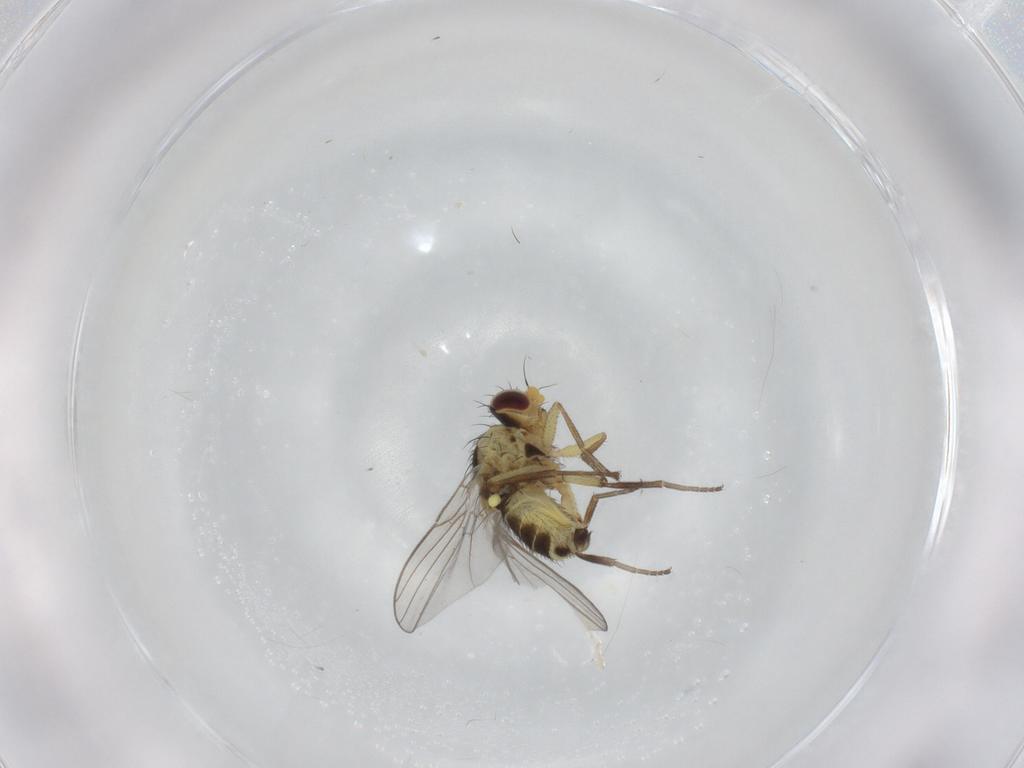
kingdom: Animalia
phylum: Arthropoda
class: Insecta
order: Diptera
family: Agromyzidae
